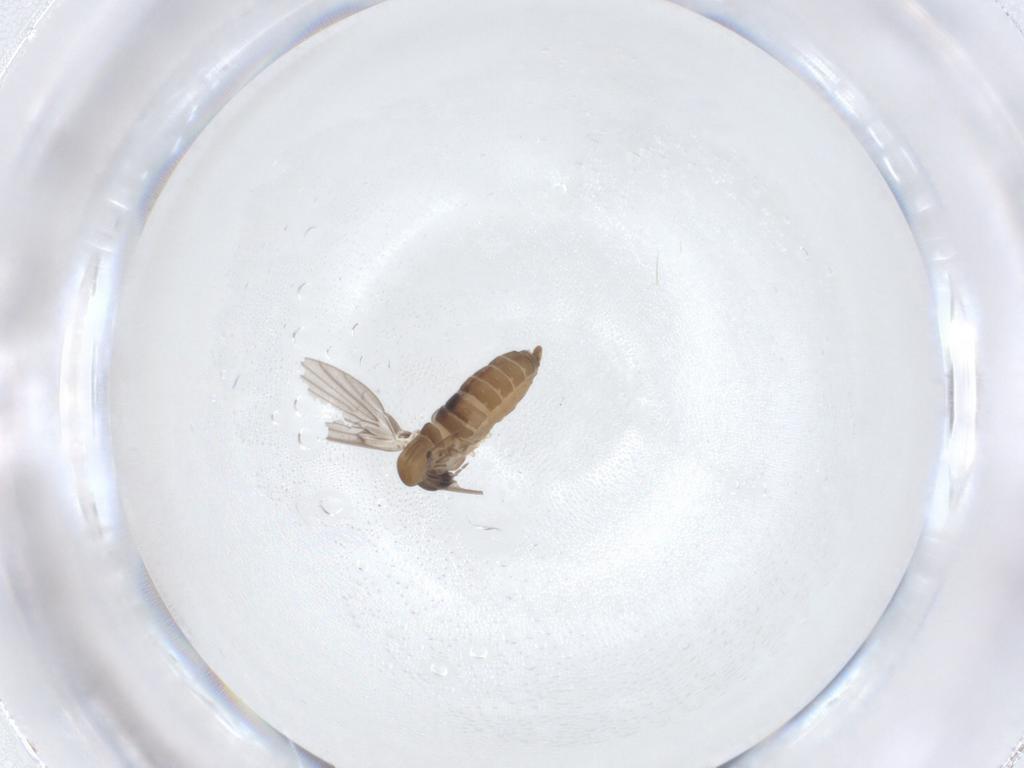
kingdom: Animalia
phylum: Arthropoda
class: Insecta
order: Diptera
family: Psychodidae
